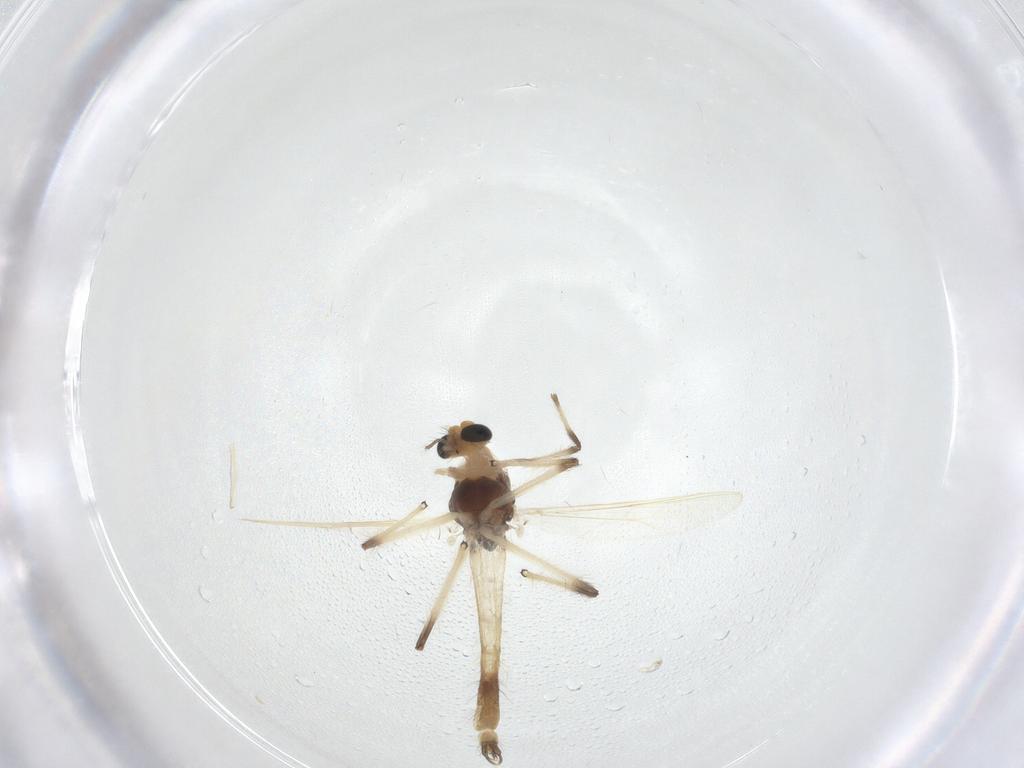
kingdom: Animalia
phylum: Arthropoda
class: Insecta
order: Diptera
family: Chironomidae
